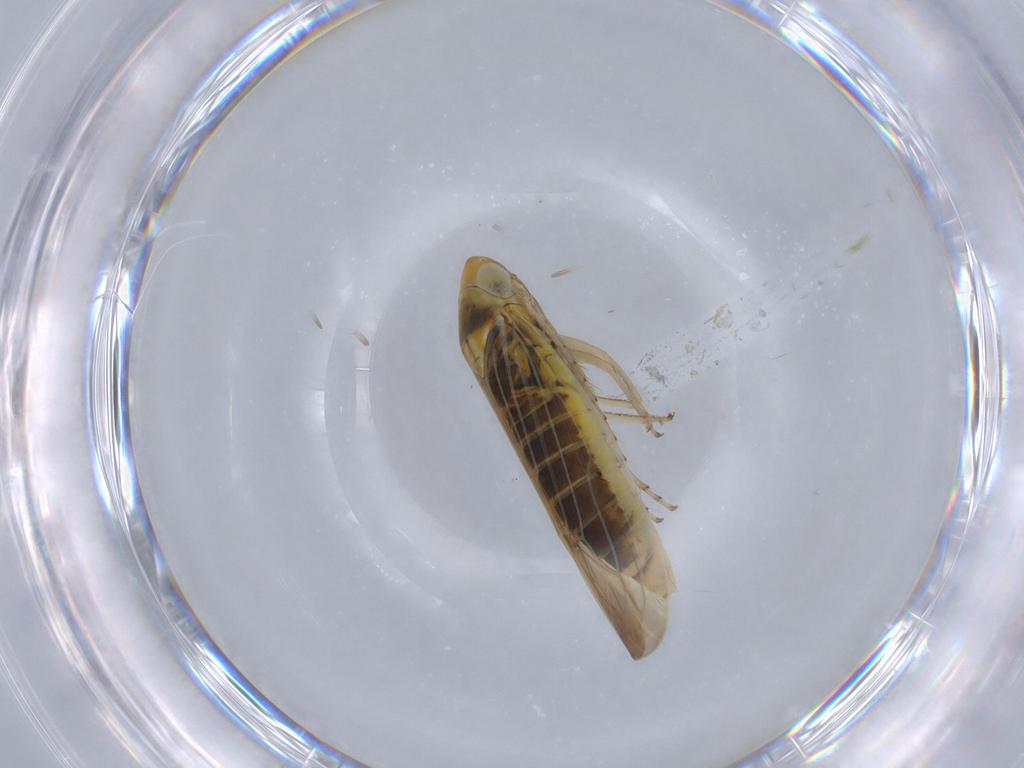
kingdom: Animalia
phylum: Arthropoda
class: Insecta
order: Hemiptera
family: Cicadellidae
